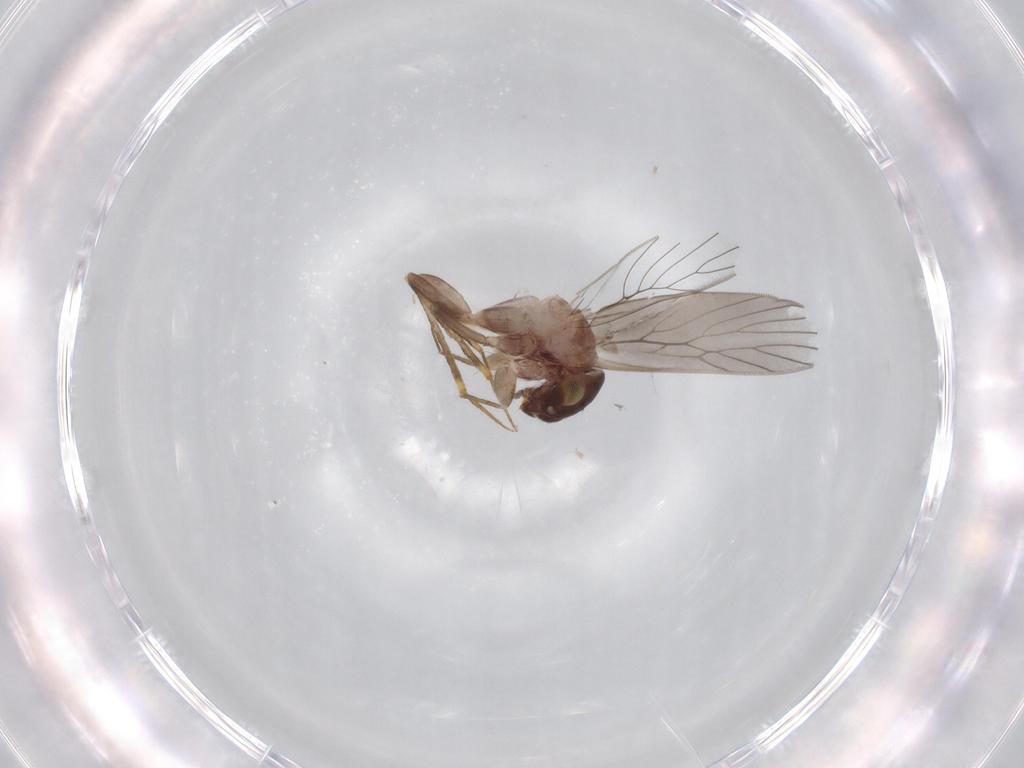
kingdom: Animalia
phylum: Arthropoda
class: Insecta
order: Psocodea
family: Lepidopsocidae
